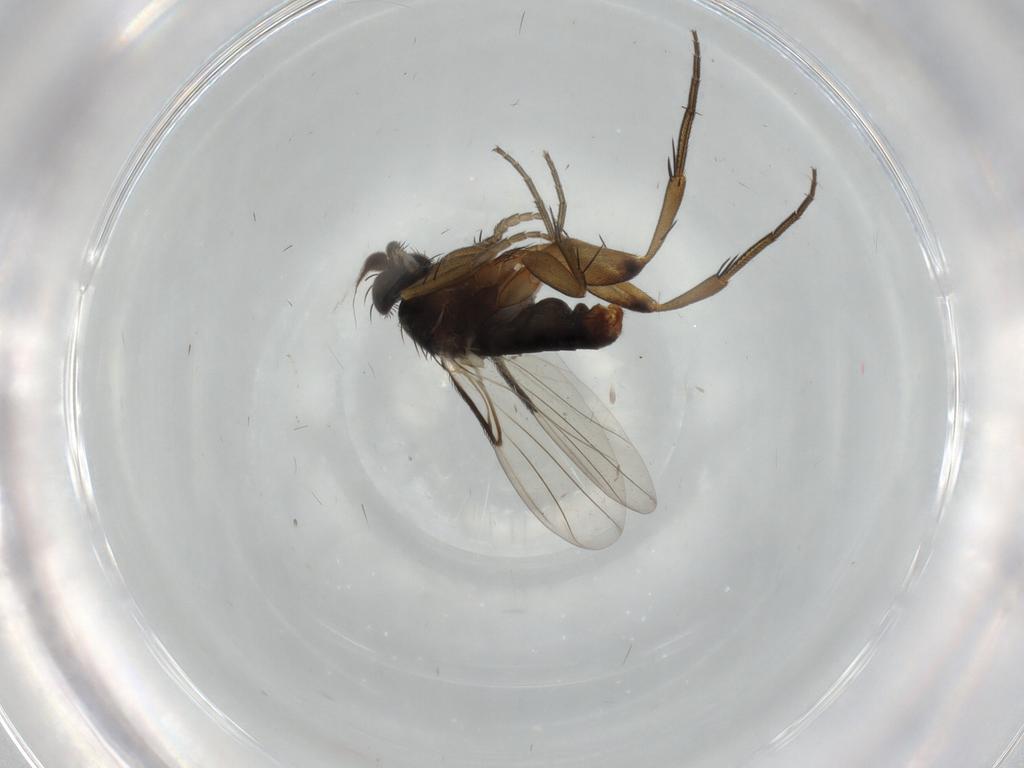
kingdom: Animalia
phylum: Arthropoda
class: Insecta
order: Diptera
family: Phoridae
